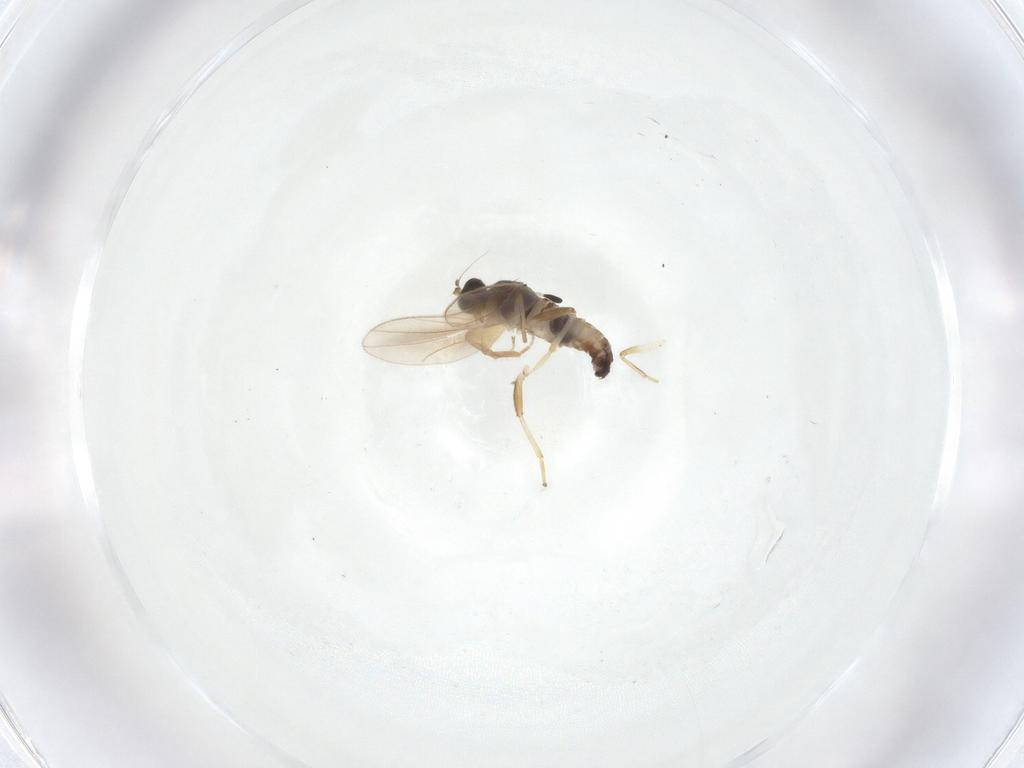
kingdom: Animalia
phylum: Arthropoda
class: Insecta
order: Diptera
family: Hybotidae
